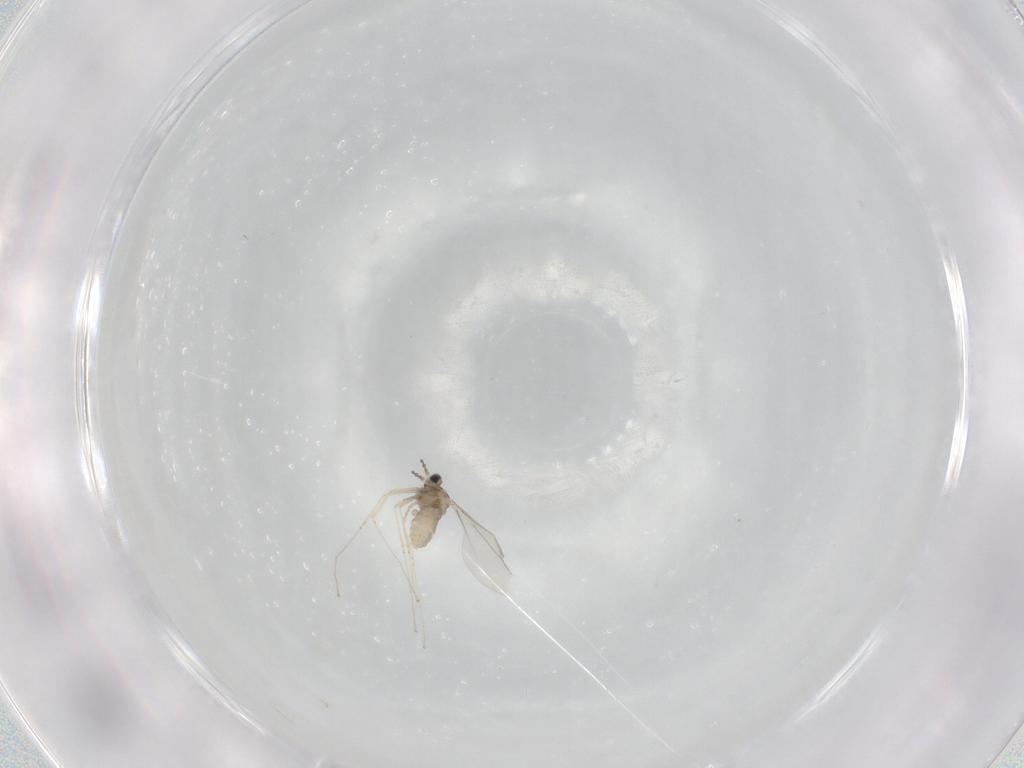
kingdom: Animalia
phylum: Arthropoda
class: Insecta
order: Diptera
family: Cecidomyiidae
